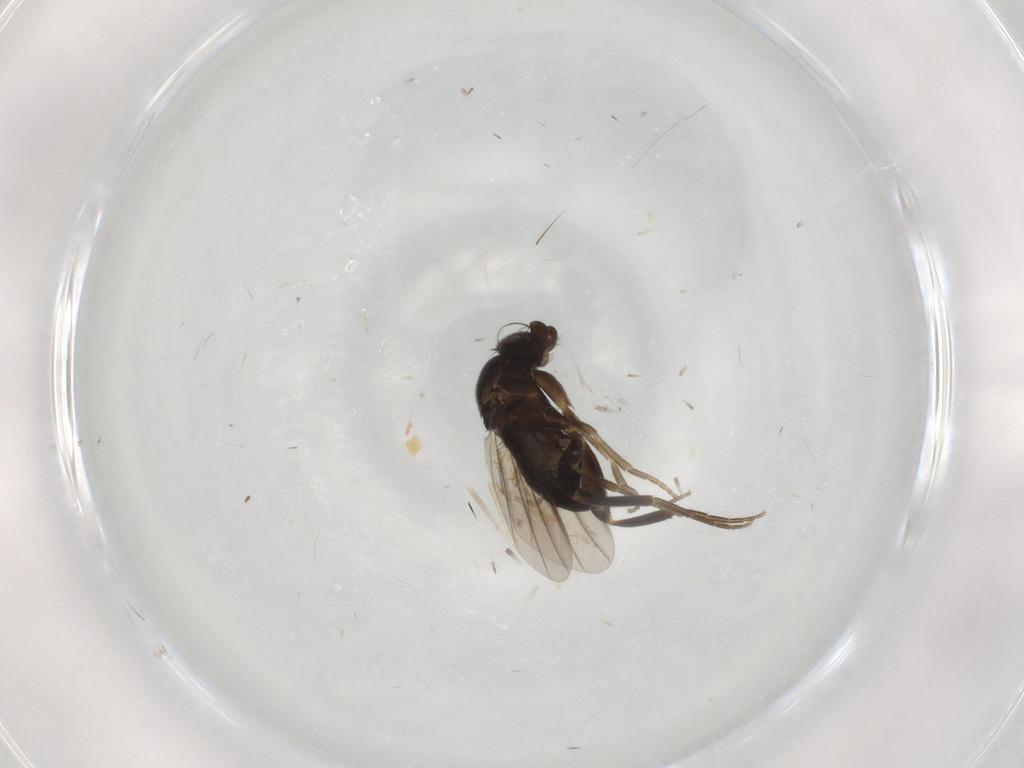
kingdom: Animalia
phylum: Arthropoda
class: Insecta
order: Diptera
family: Cecidomyiidae
